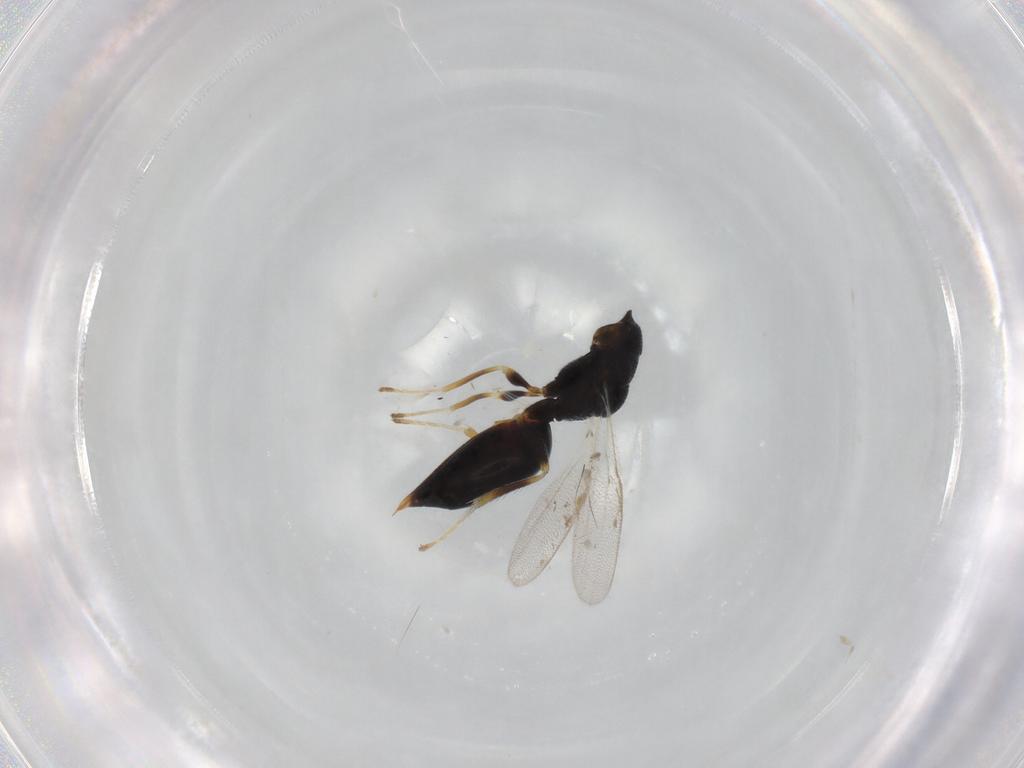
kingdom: Animalia
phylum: Arthropoda
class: Insecta
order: Hymenoptera
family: Eurytomidae
